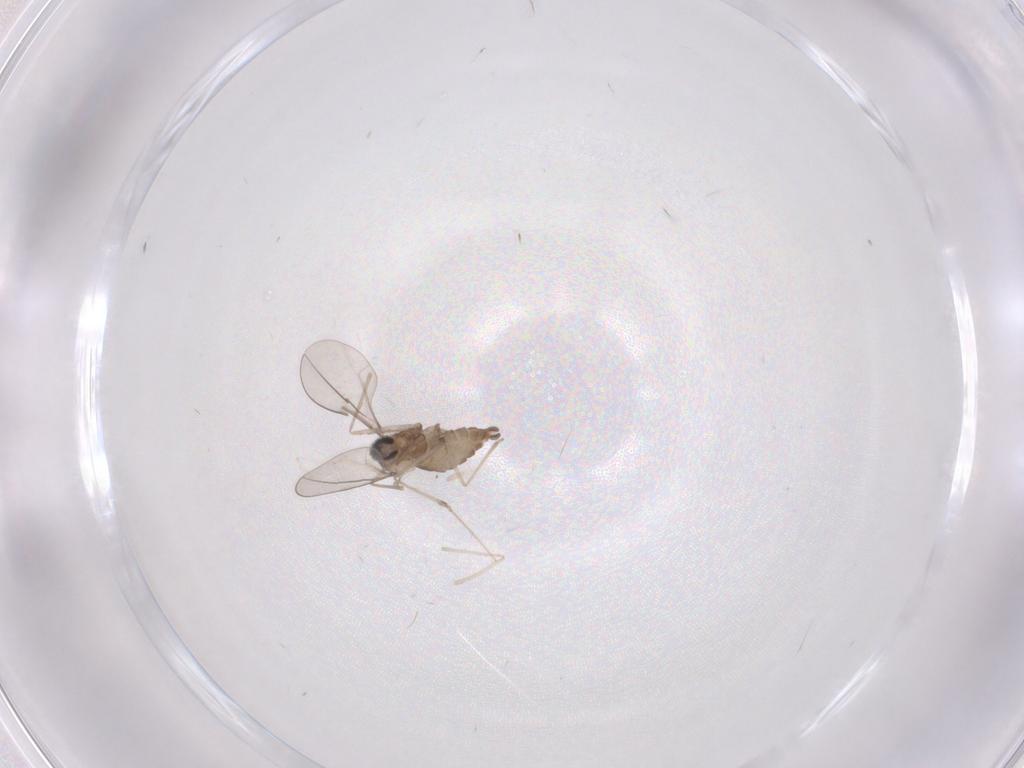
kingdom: Animalia
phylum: Arthropoda
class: Insecta
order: Diptera
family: Cecidomyiidae
